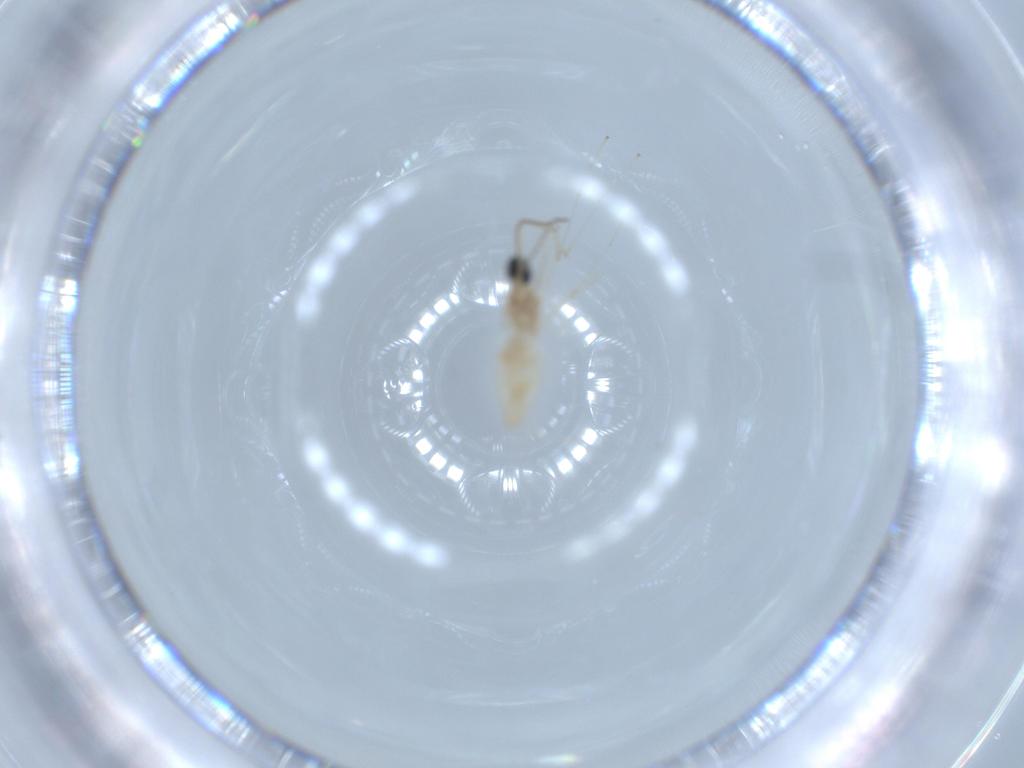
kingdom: Animalia
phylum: Arthropoda
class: Insecta
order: Diptera
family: Cecidomyiidae
